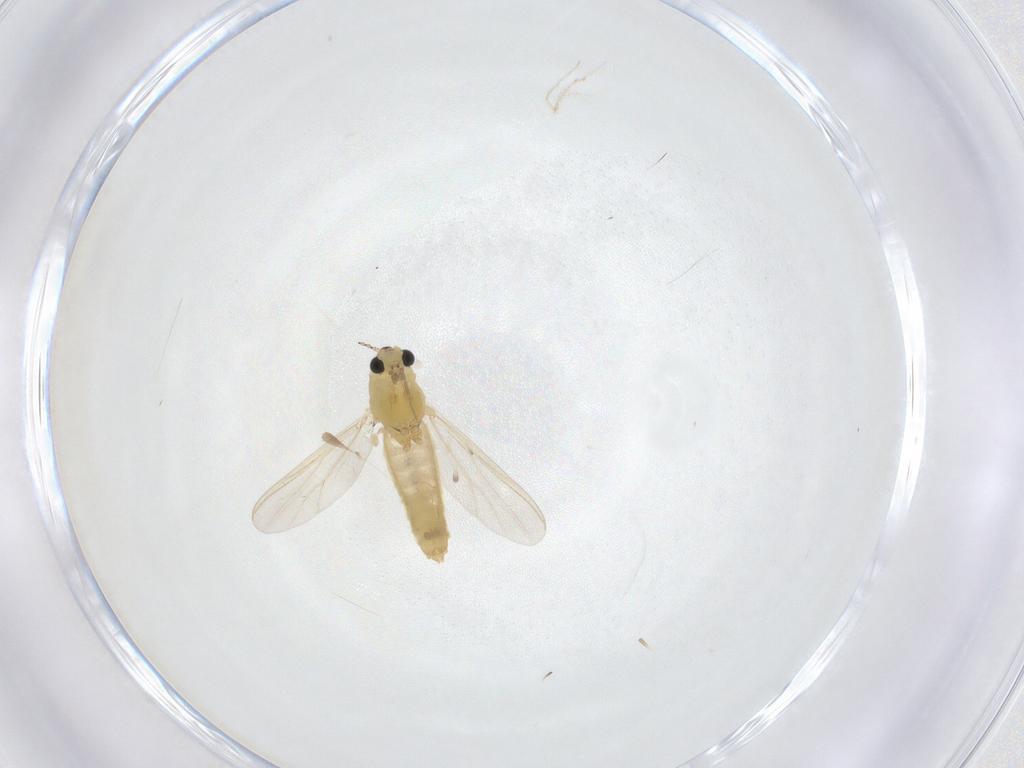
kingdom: Animalia
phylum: Arthropoda
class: Insecta
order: Diptera
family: Chironomidae
